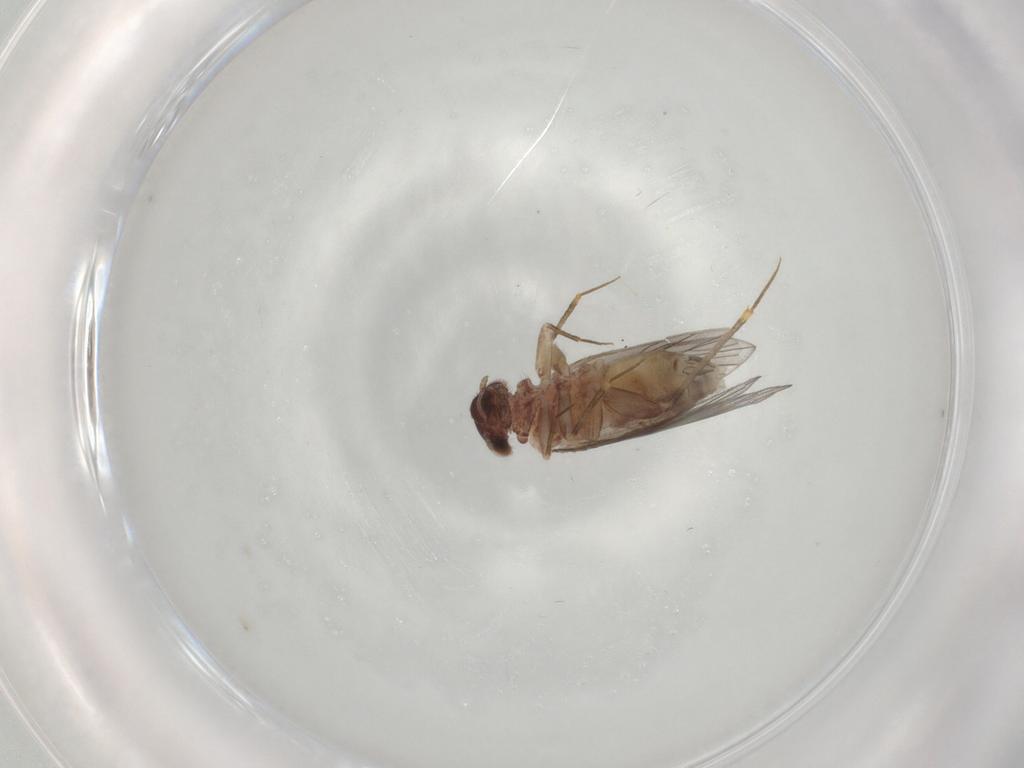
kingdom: Animalia
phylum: Arthropoda
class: Insecta
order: Psocodea
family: Lepidopsocidae
